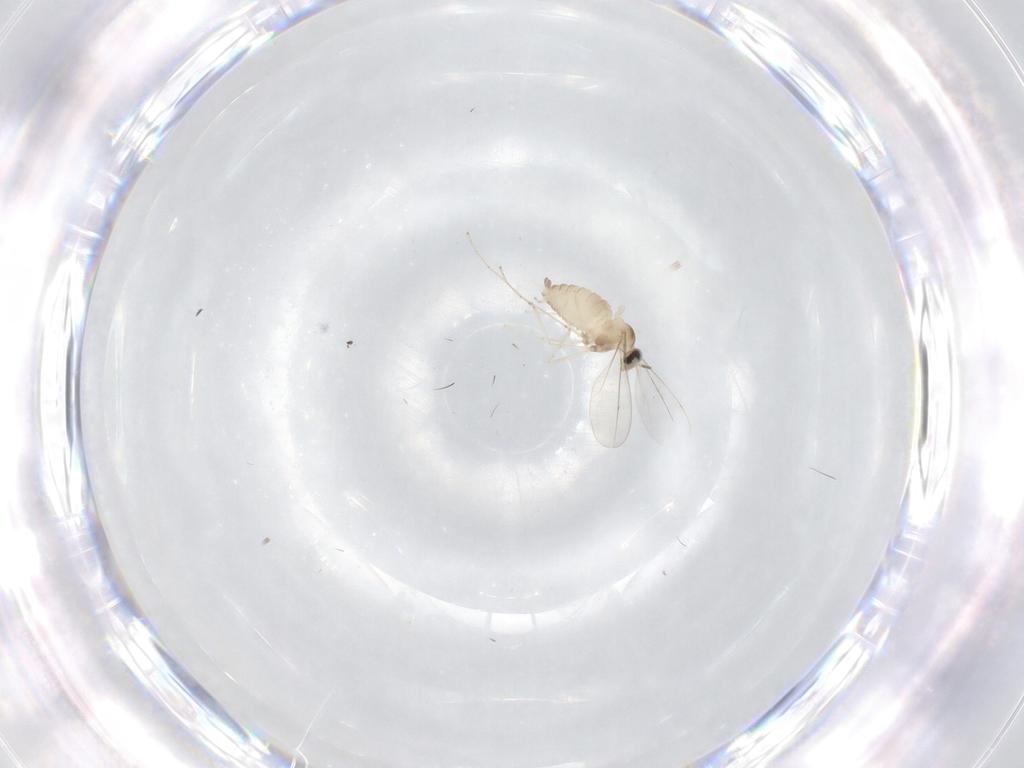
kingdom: Animalia
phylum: Arthropoda
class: Insecta
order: Diptera
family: Cecidomyiidae
